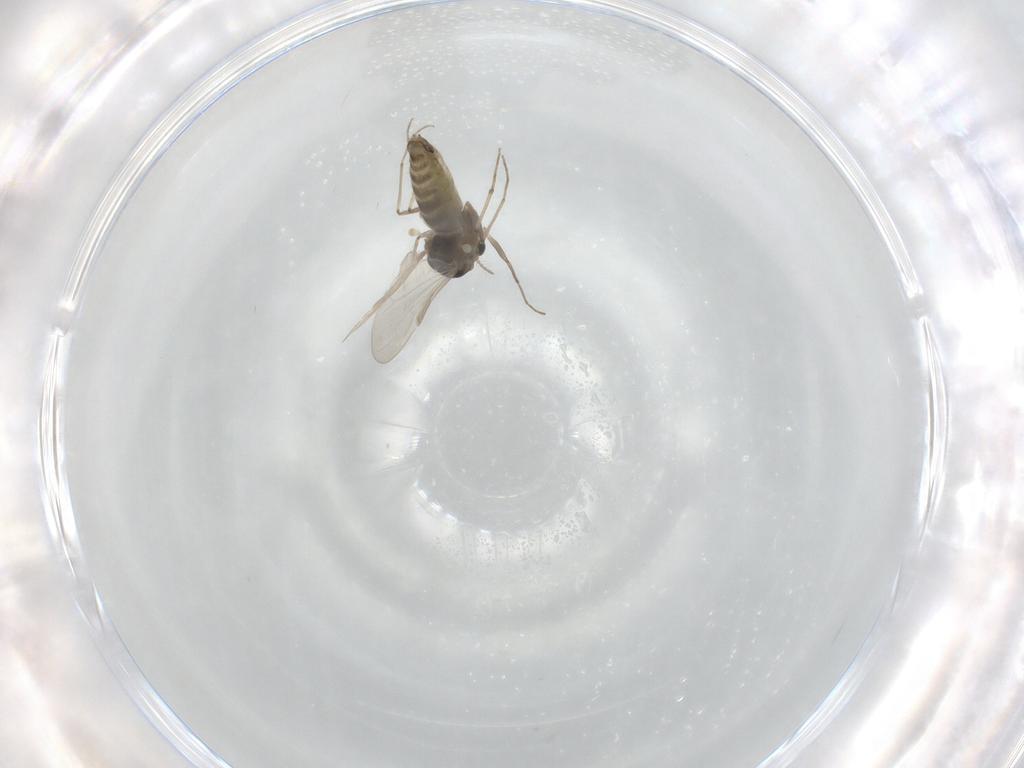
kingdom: Animalia
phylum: Arthropoda
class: Insecta
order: Diptera
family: Chironomidae
